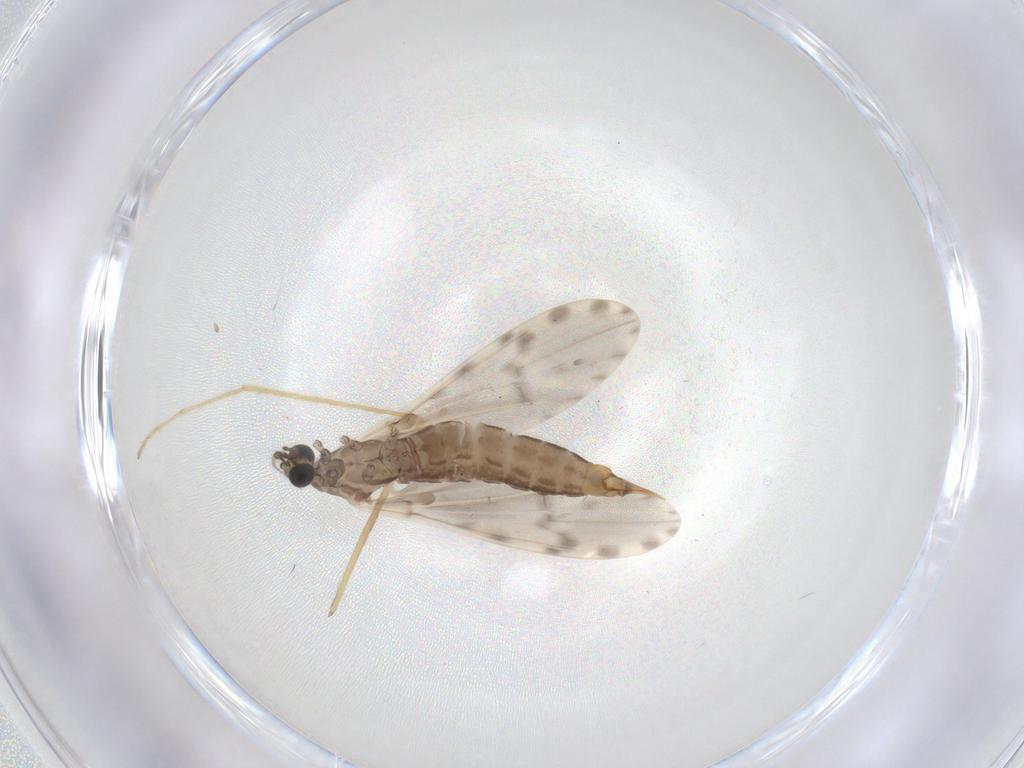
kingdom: Animalia
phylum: Arthropoda
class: Insecta
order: Diptera
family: Limoniidae
